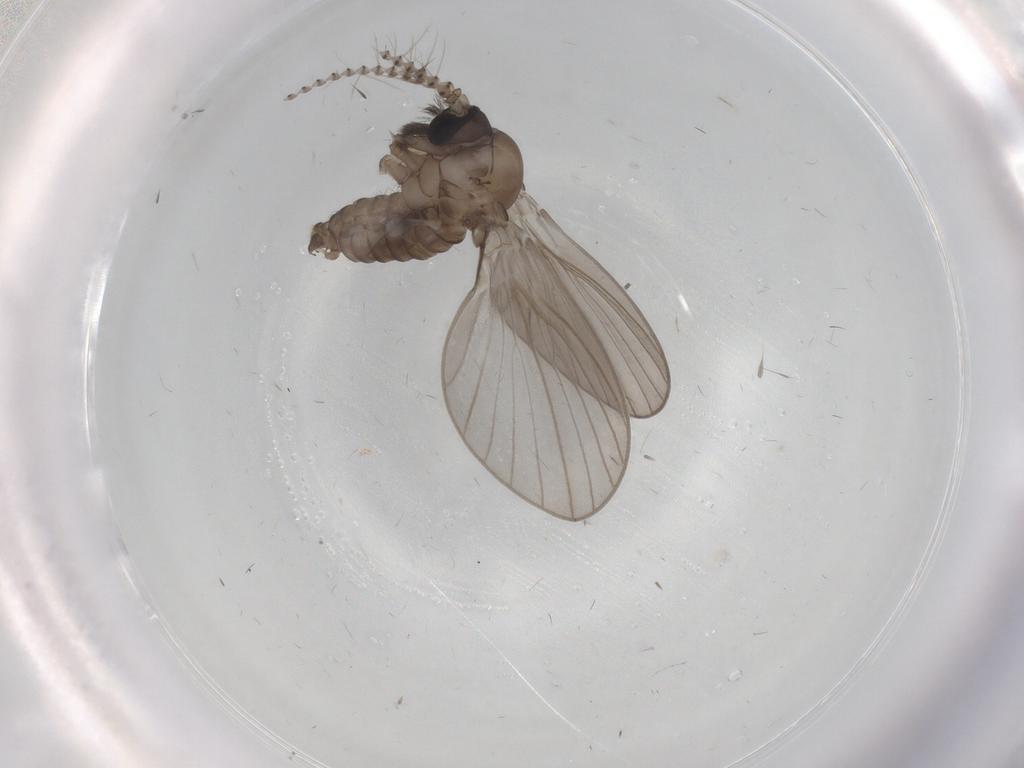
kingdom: Animalia
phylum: Arthropoda
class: Insecta
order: Diptera
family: Psychodidae
